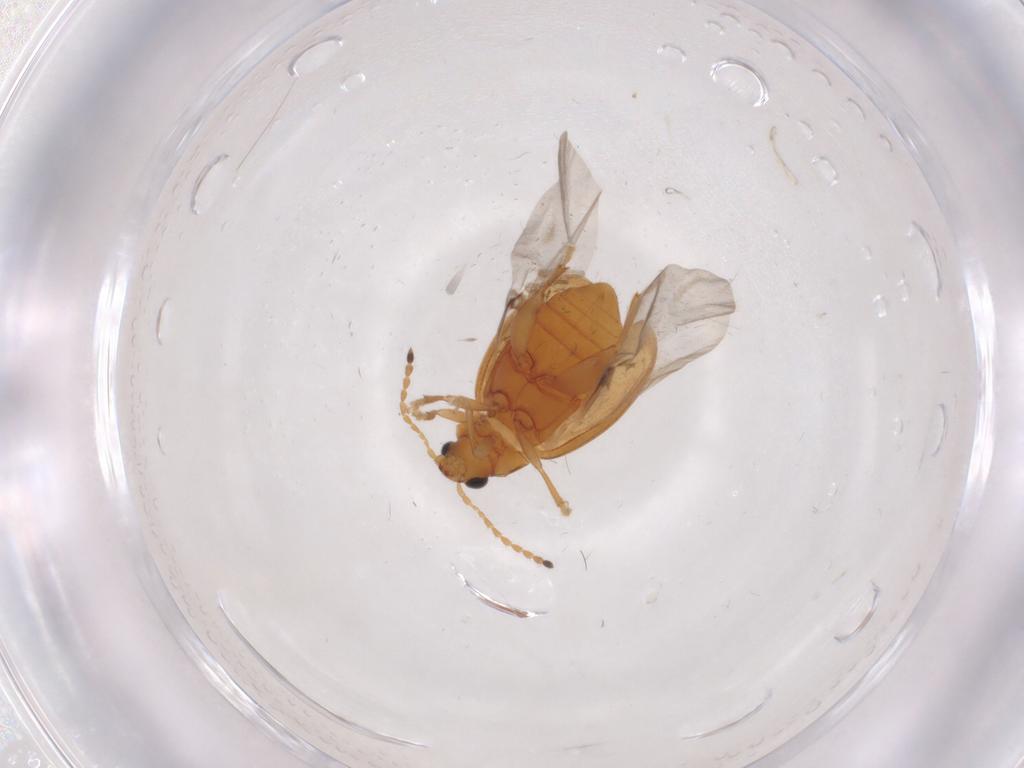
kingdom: Animalia
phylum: Arthropoda
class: Insecta
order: Coleoptera
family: Chrysomelidae
